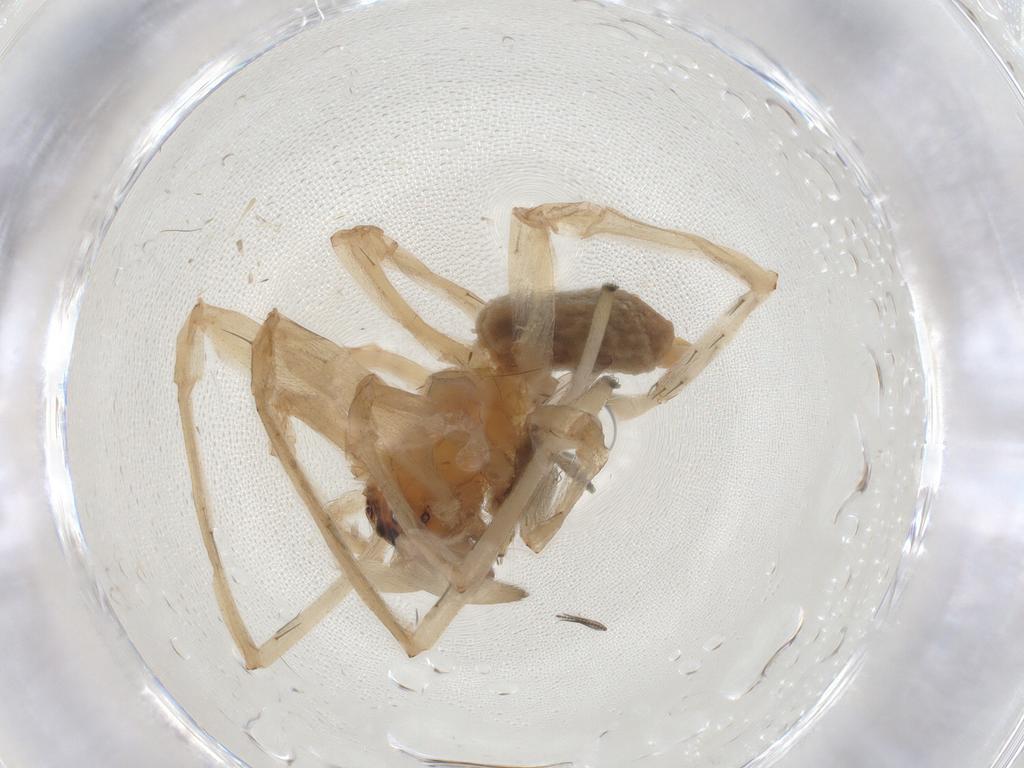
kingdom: Animalia
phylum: Arthropoda
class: Arachnida
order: Araneae
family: Cheiracanthiidae
